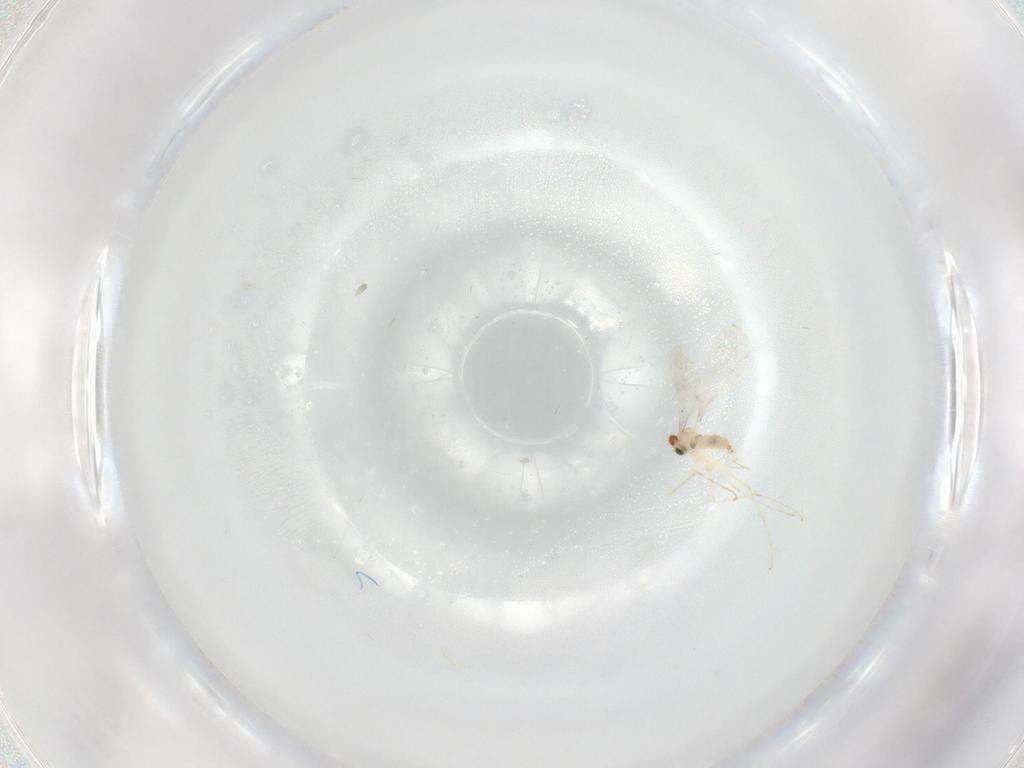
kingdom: Animalia
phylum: Arthropoda
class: Insecta
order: Diptera
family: Cecidomyiidae
